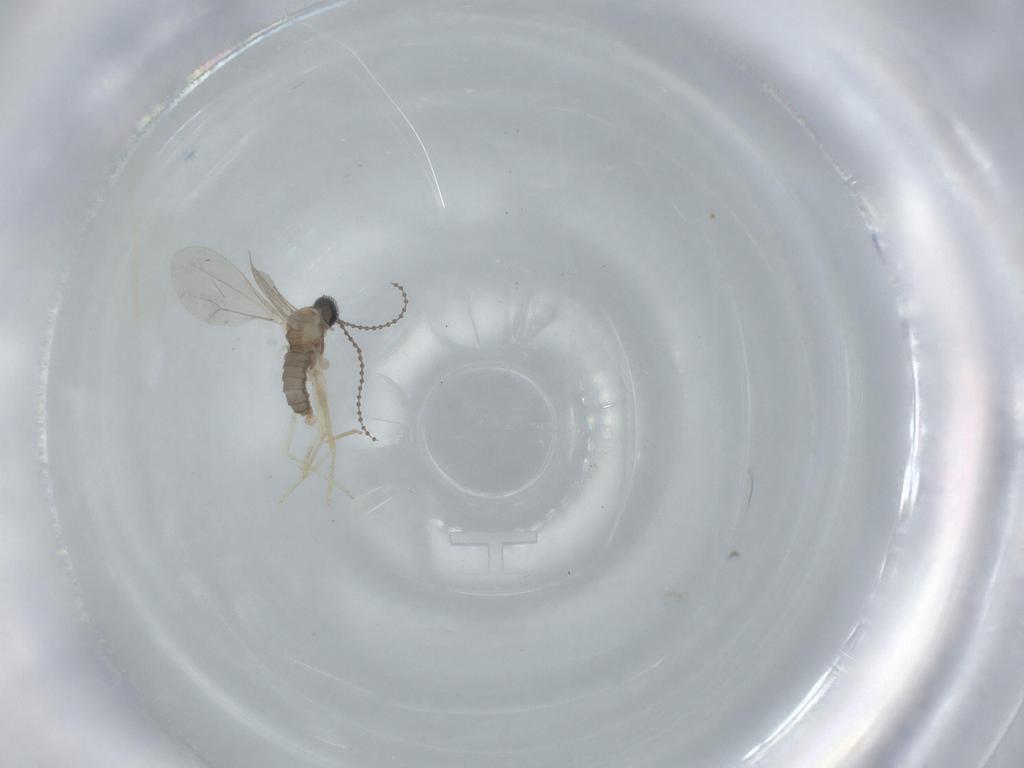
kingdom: Animalia
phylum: Arthropoda
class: Insecta
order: Diptera
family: Cecidomyiidae
